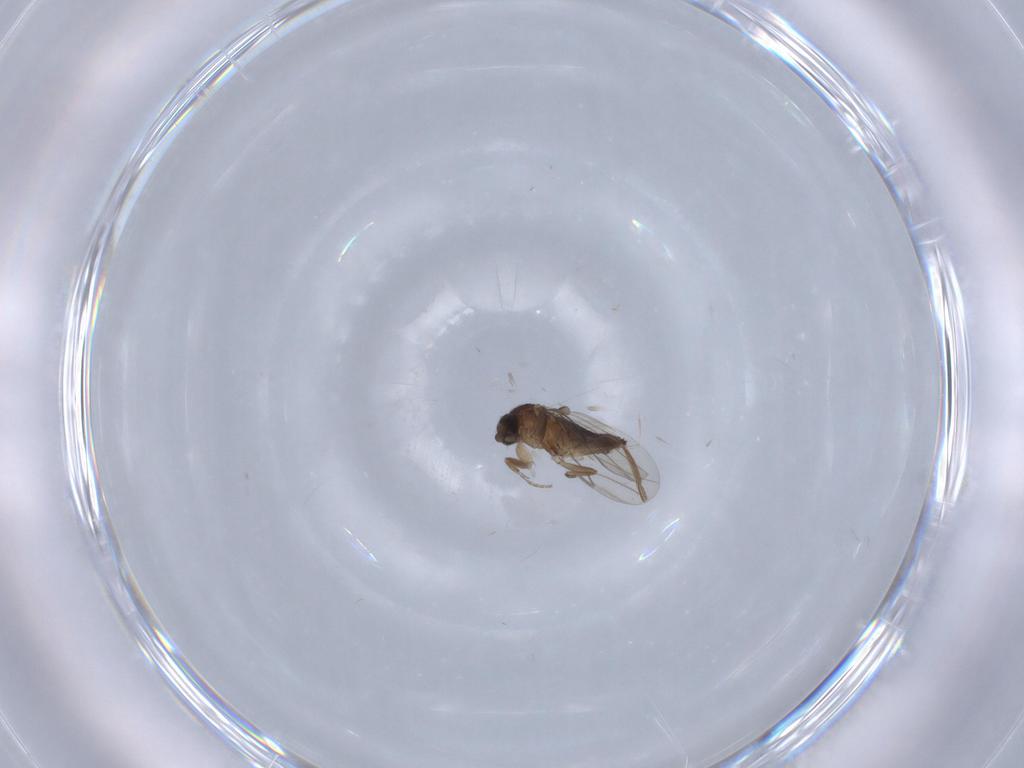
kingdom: Animalia
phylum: Arthropoda
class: Insecta
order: Diptera
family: Phoridae
